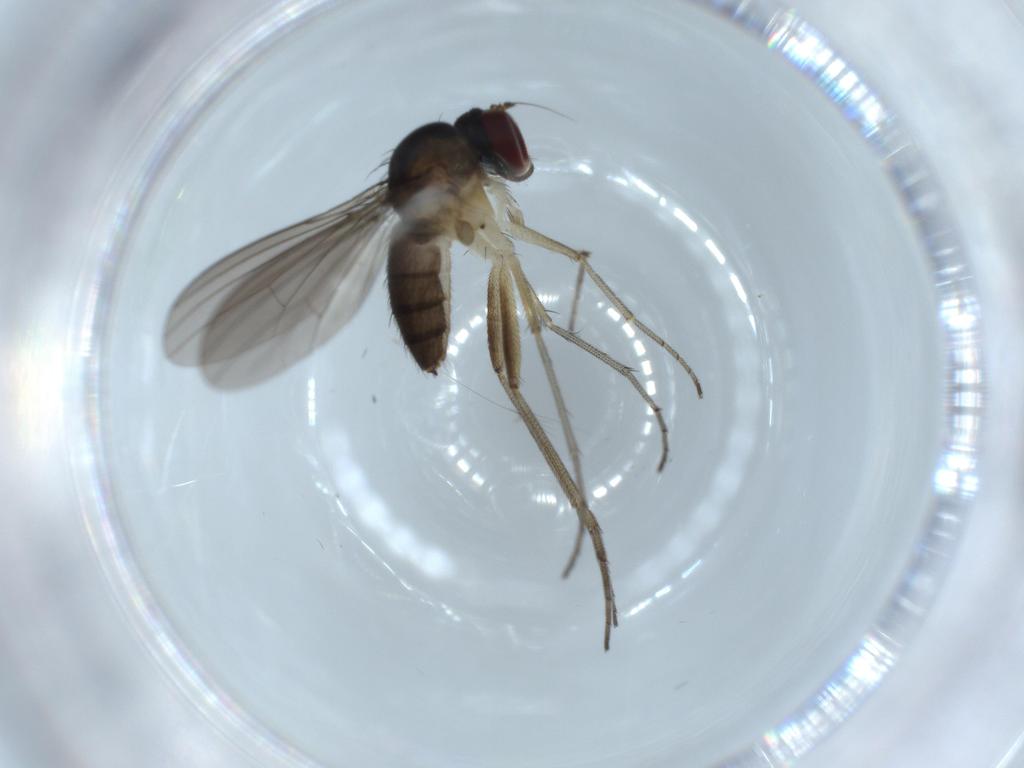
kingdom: Animalia
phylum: Arthropoda
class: Insecta
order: Diptera
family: Dolichopodidae
